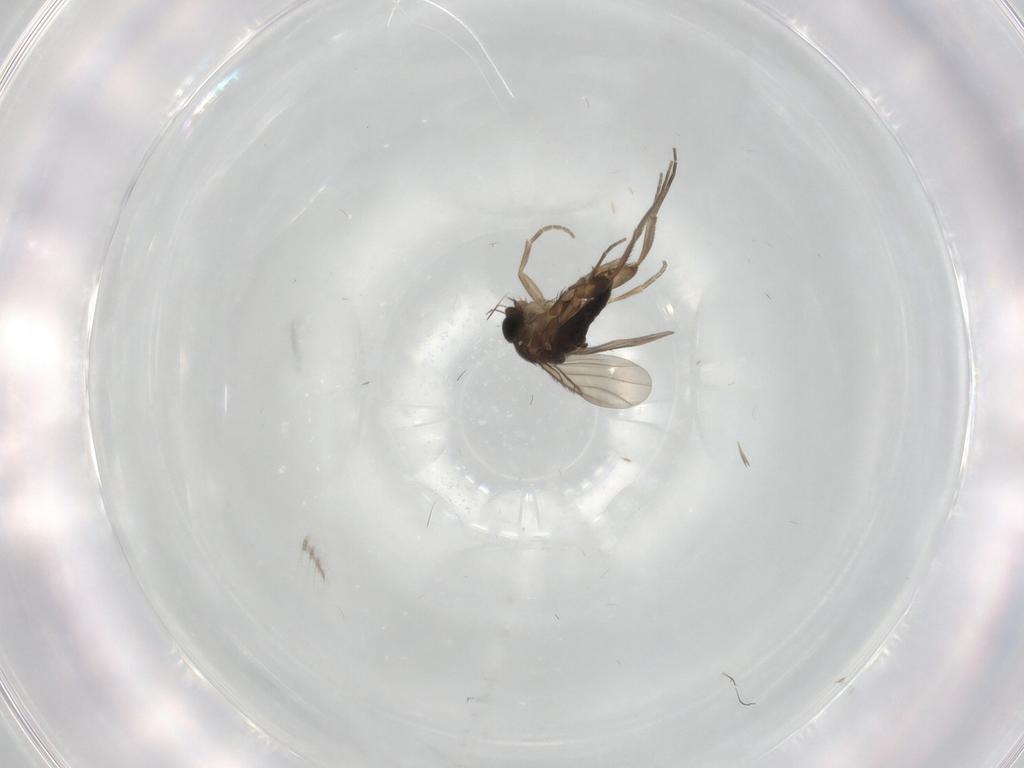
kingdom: Animalia
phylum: Arthropoda
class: Insecta
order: Diptera
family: Phoridae
